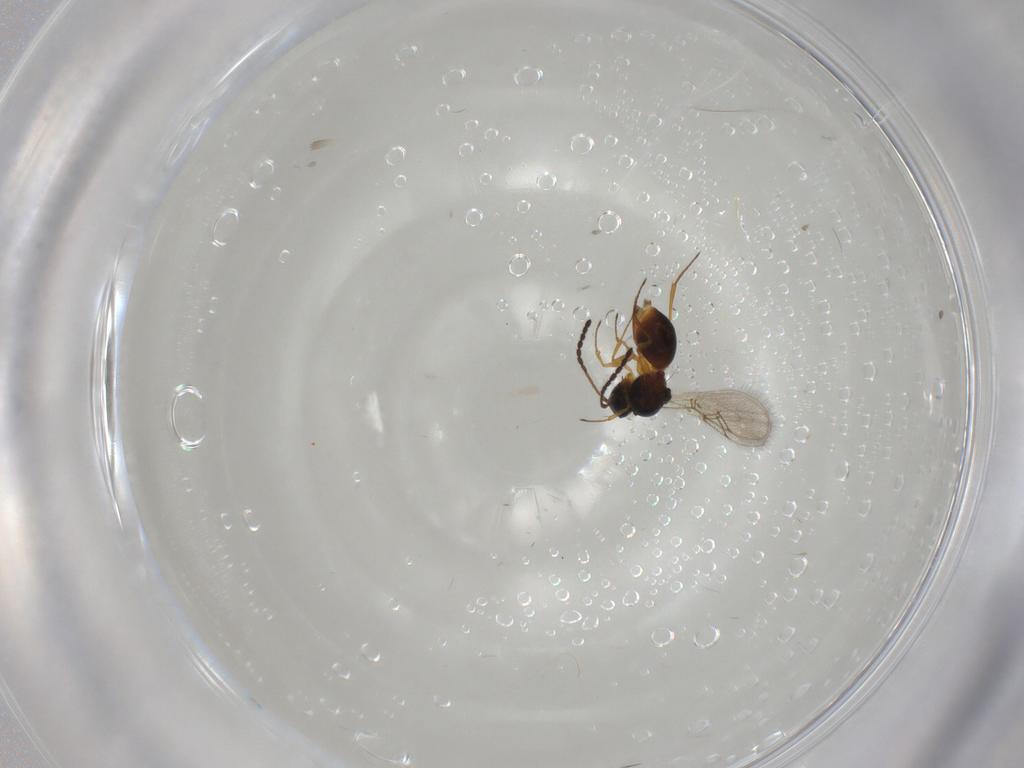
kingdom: Animalia
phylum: Arthropoda
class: Insecta
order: Hymenoptera
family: Figitidae
